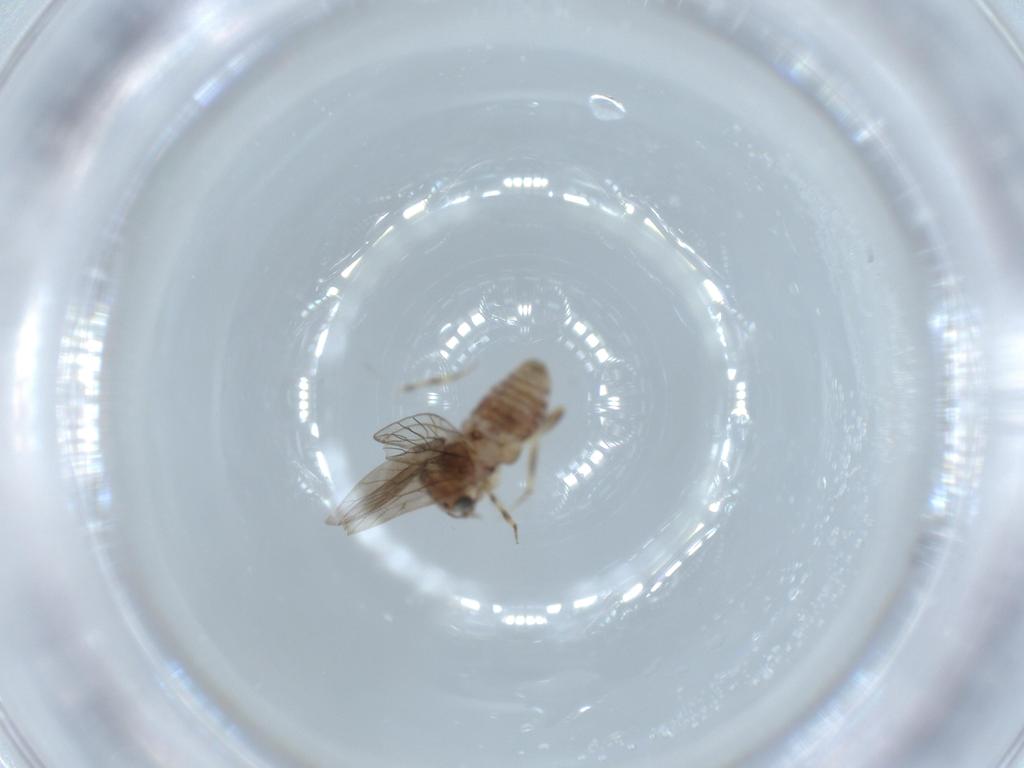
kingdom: Animalia
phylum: Arthropoda
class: Insecta
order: Psocodea
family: Lepidopsocidae
